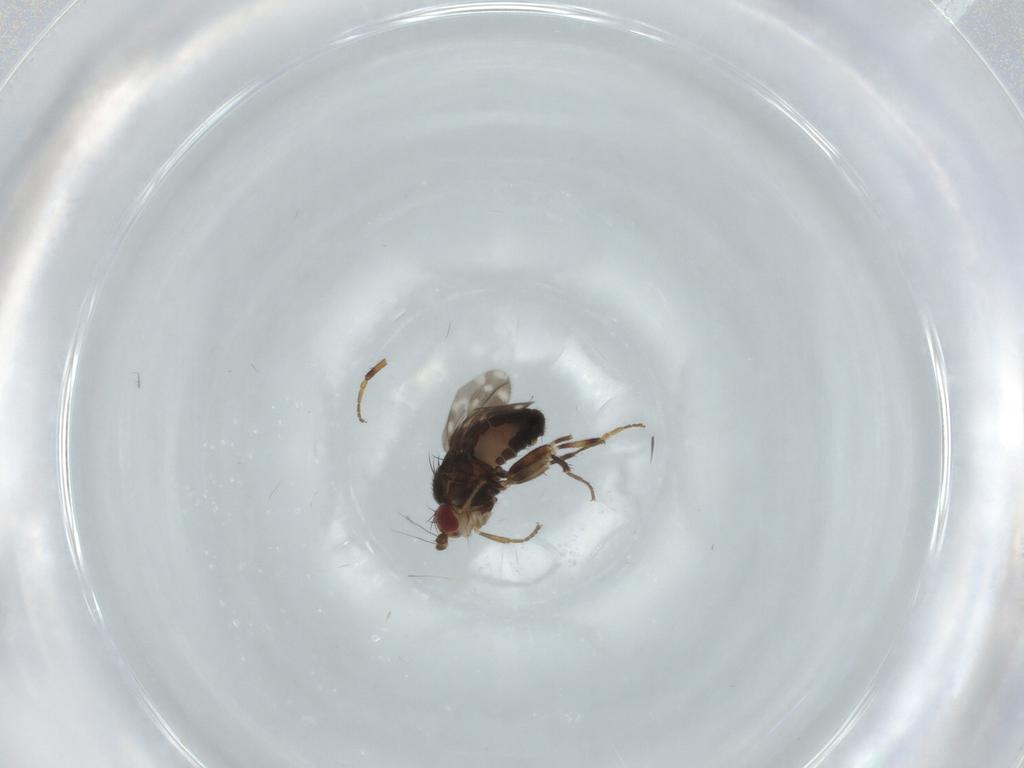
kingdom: Animalia
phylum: Arthropoda
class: Insecta
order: Diptera
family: Sphaeroceridae
